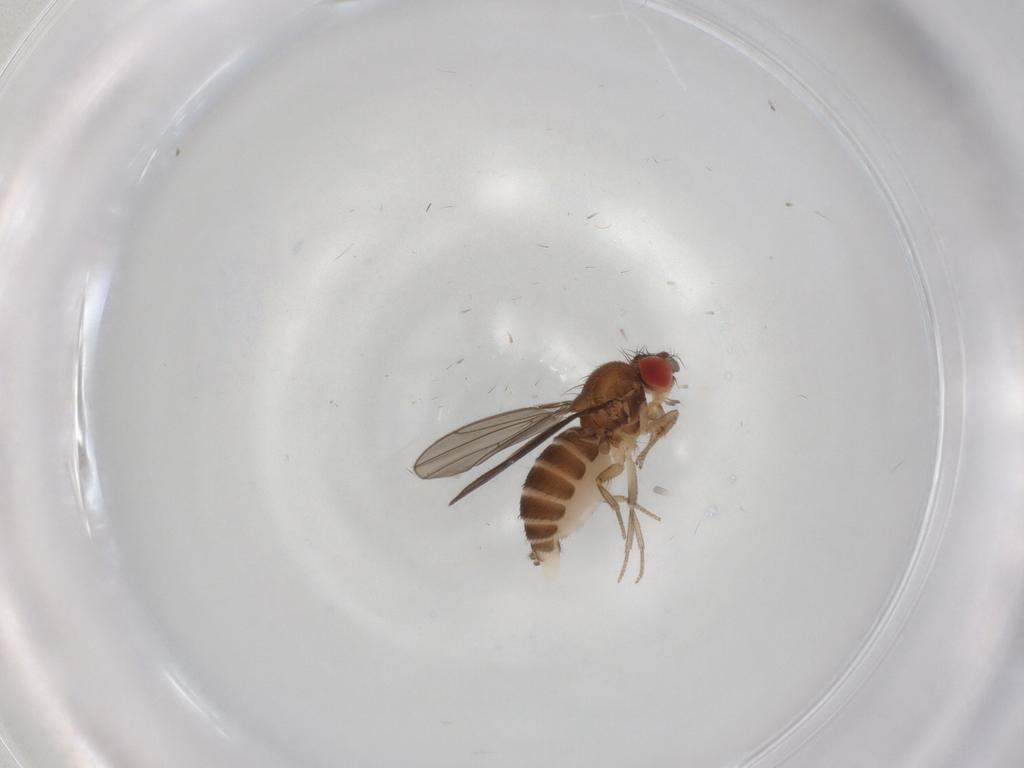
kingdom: Animalia
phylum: Arthropoda
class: Insecta
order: Diptera
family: Drosophilidae
